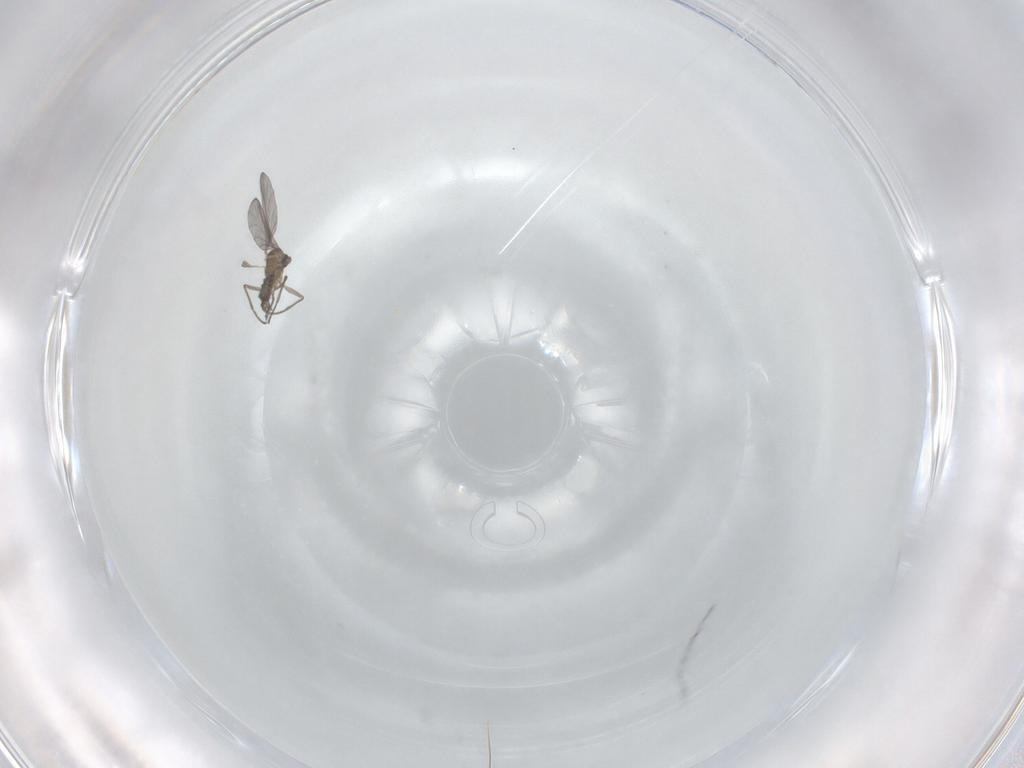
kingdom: Animalia
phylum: Arthropoda
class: Insecta
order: Diptera
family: Sciaridae
